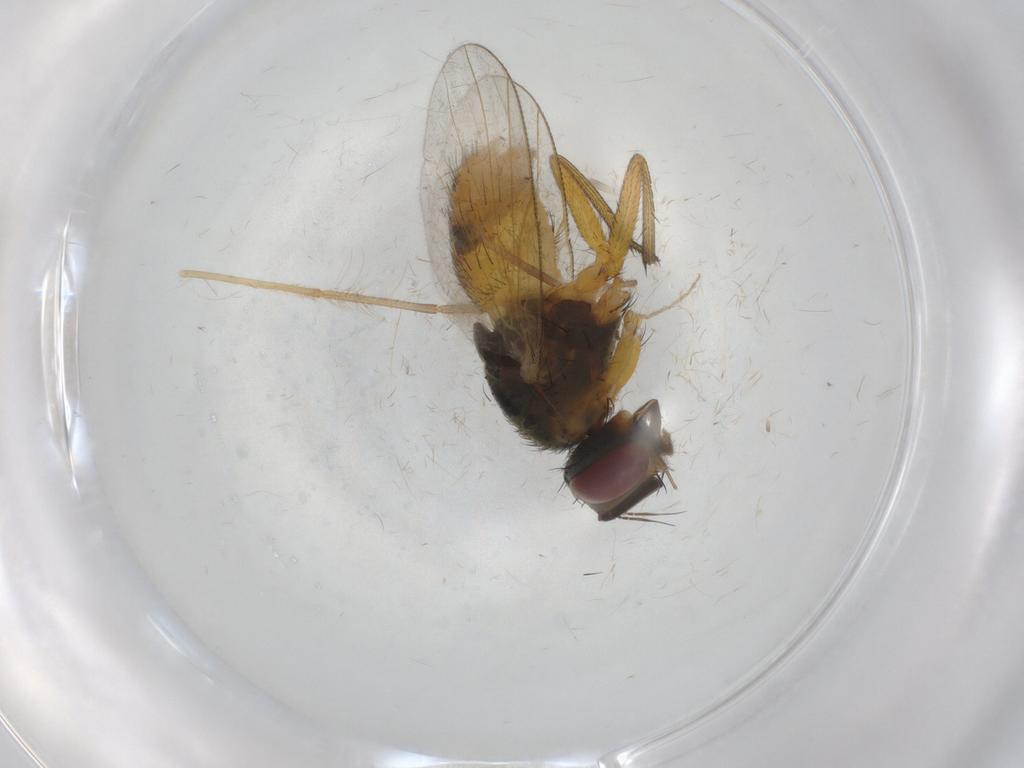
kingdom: Animalia
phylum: Arthropoda
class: Insecta
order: Diptera
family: Muscidae
